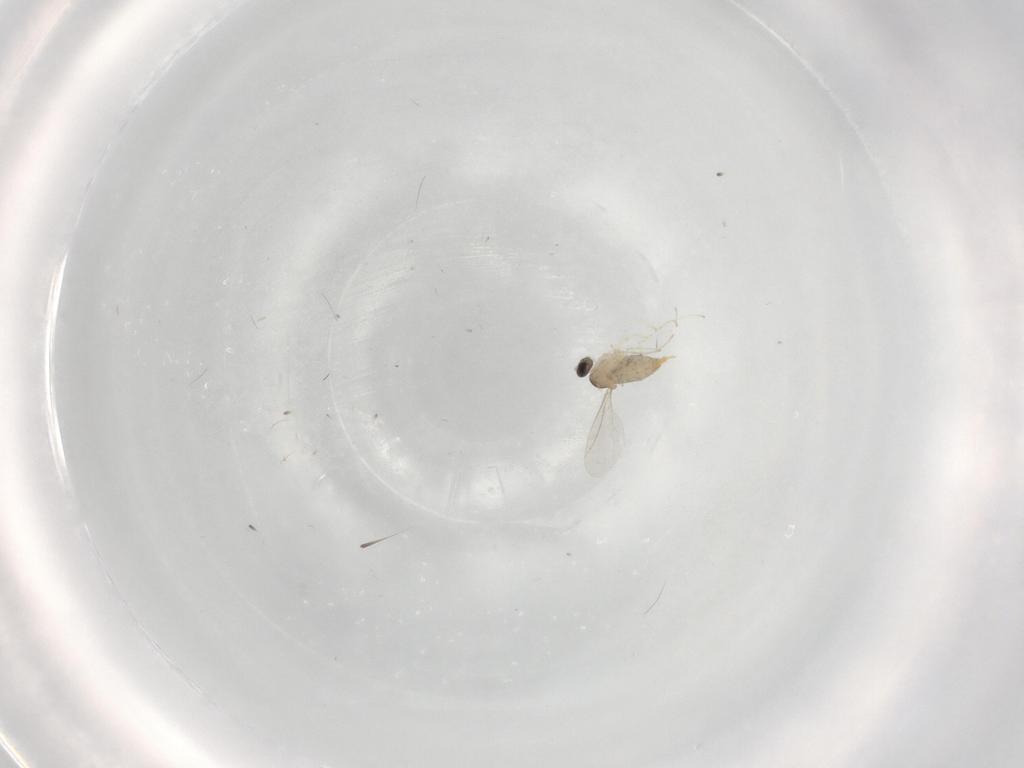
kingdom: Animalia
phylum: Arthropoda
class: Insecta
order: Diptera
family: Cecidomyiidae
